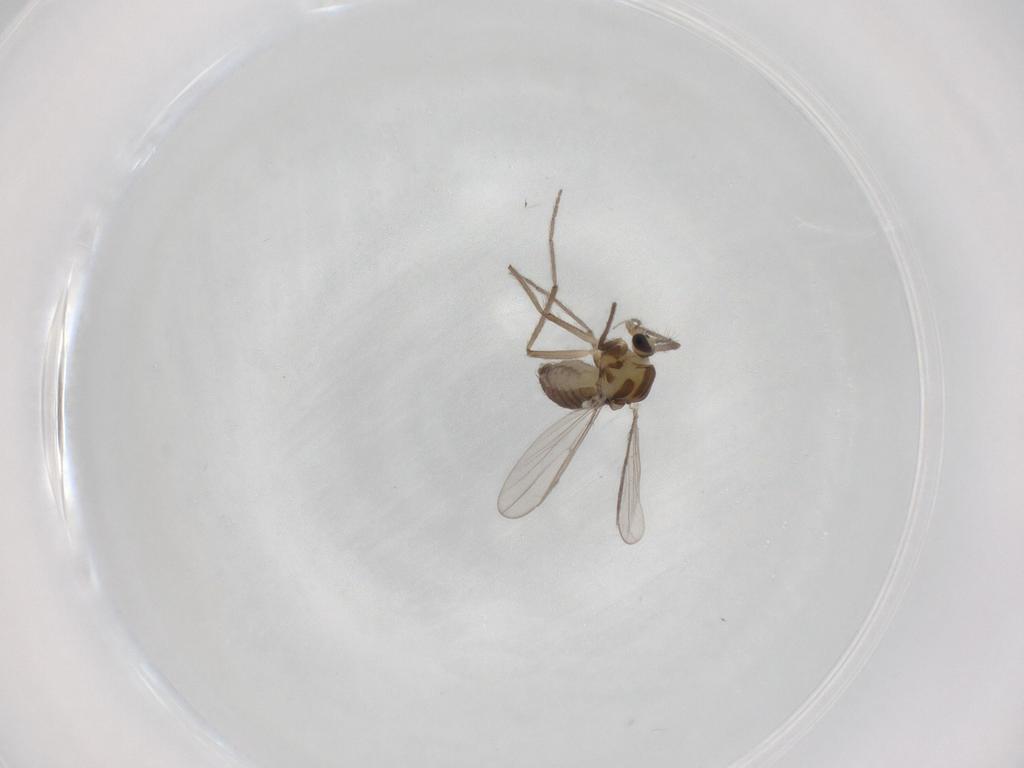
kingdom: Animalia
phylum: Arthropoda
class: Insecta
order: Diptera
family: Chironomidae
